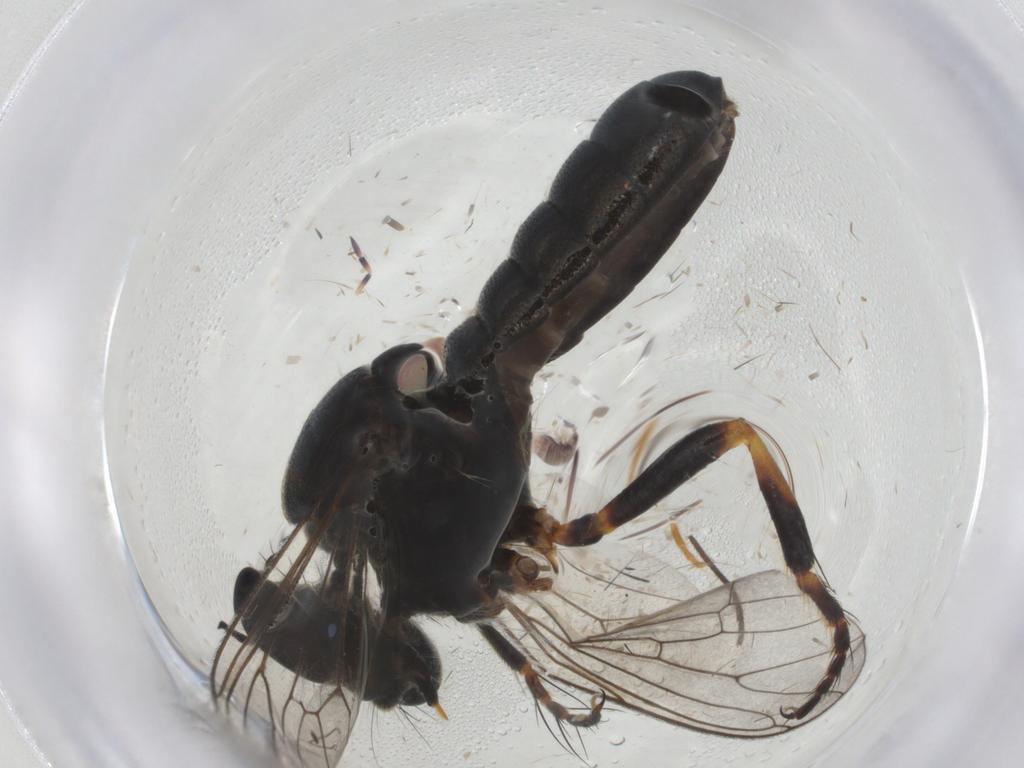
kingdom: Animalia
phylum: Arthropoda
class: Insecta
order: Diptera
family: Asilidae
